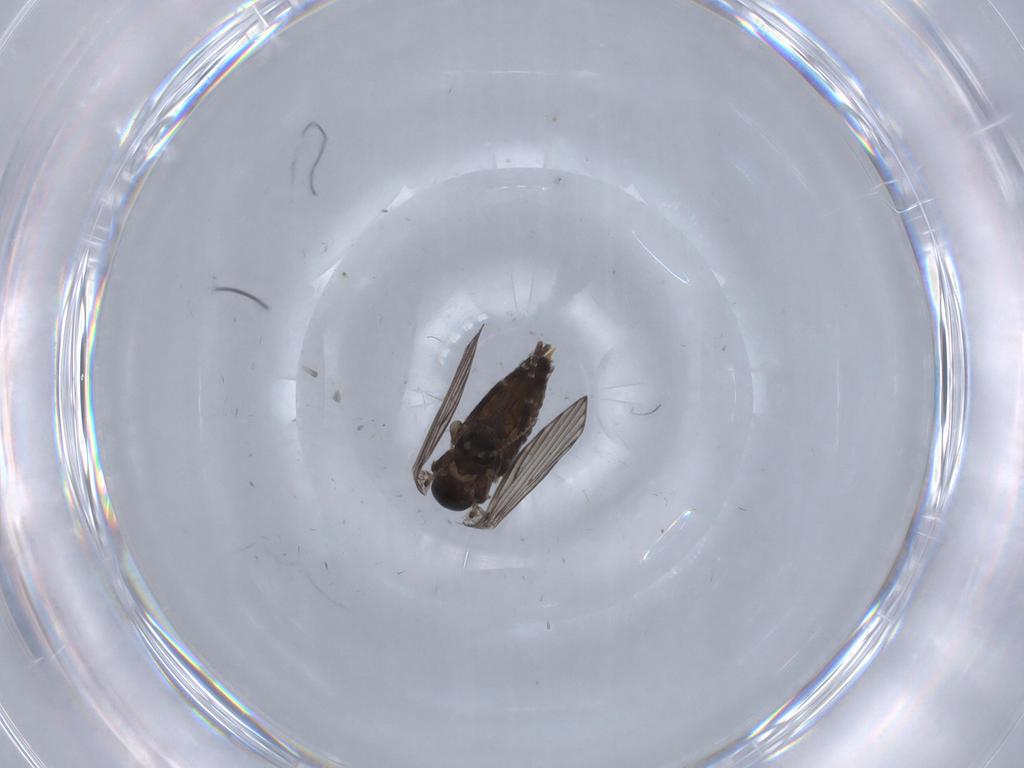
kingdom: Animalia
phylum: Arthropoda
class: Insecta
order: Diptera
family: Psychodidae
